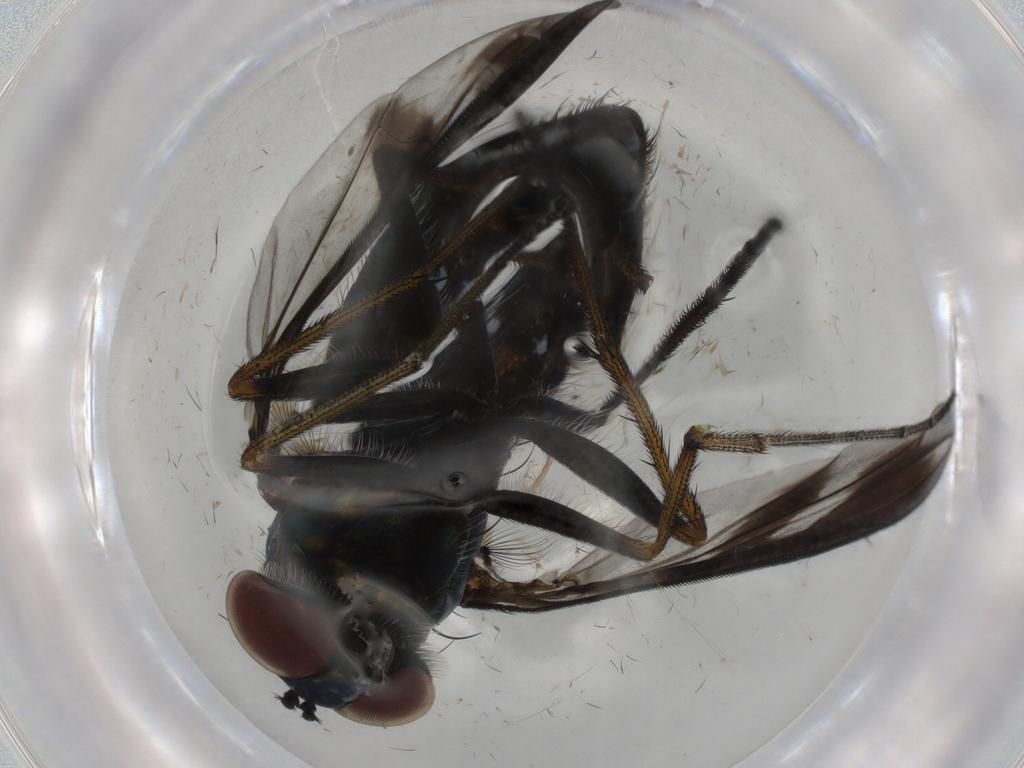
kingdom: Animalia
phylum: Arthropoda
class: Insecta
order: Diptera
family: Dolichopodidae
